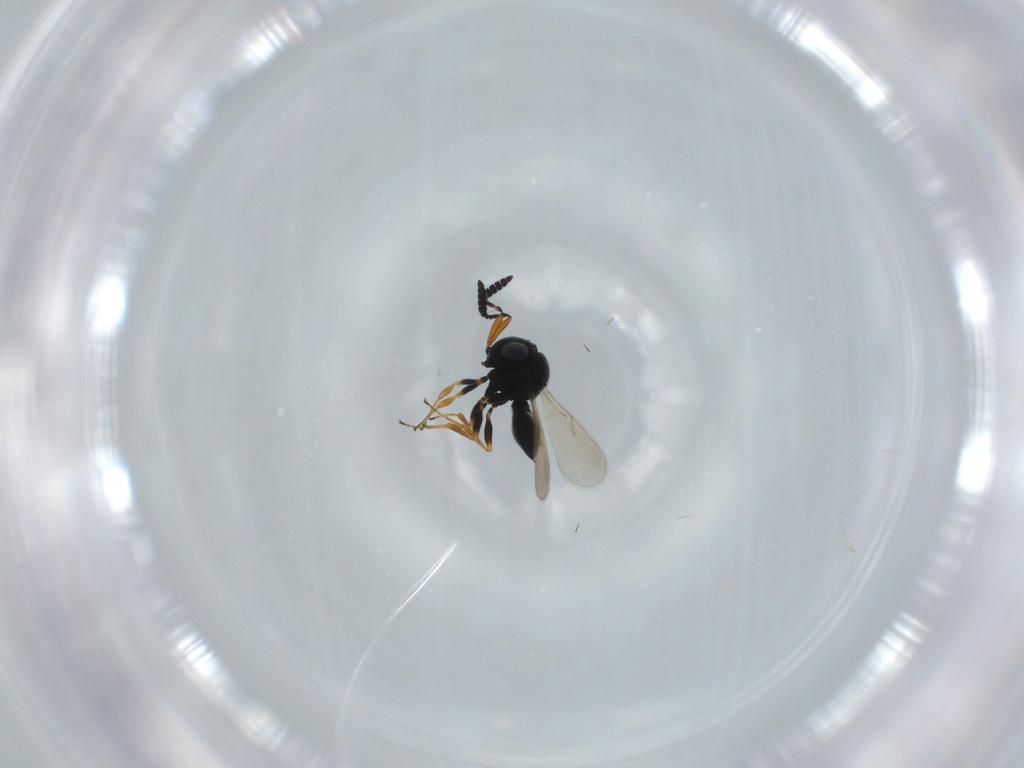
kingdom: Animalia
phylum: Arthropoda
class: Insecta
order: Hymenoptera
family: Scelionidae
